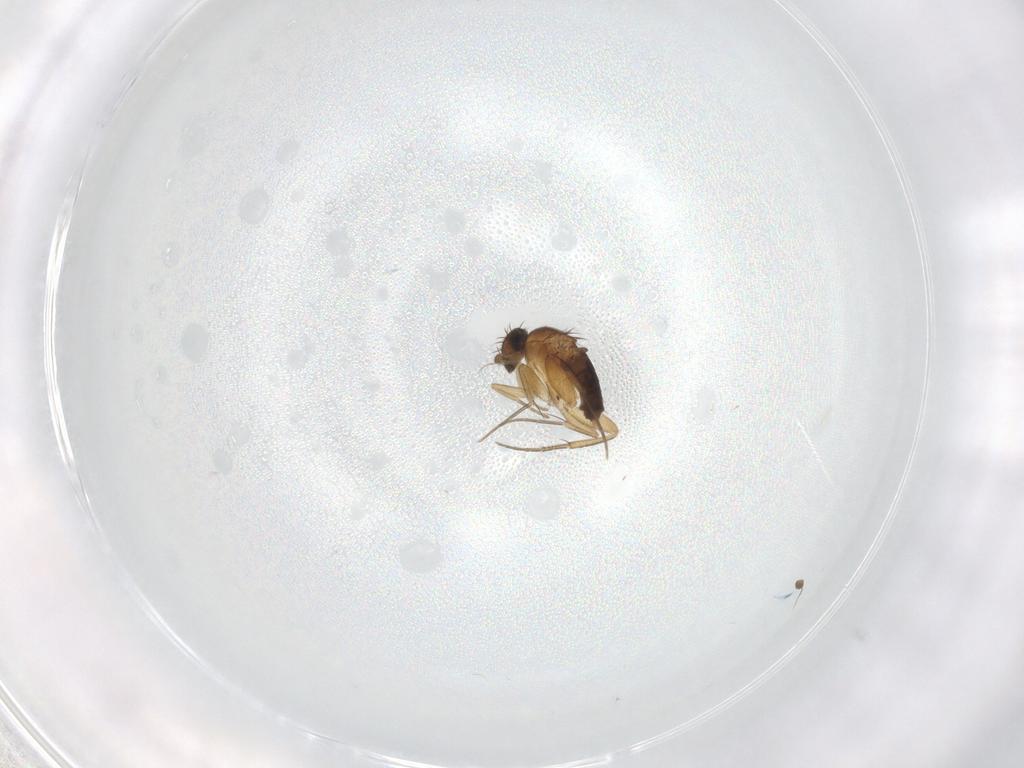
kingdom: Animalia
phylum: Arthropoda
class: Insecta
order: Diptera
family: Phoridae
